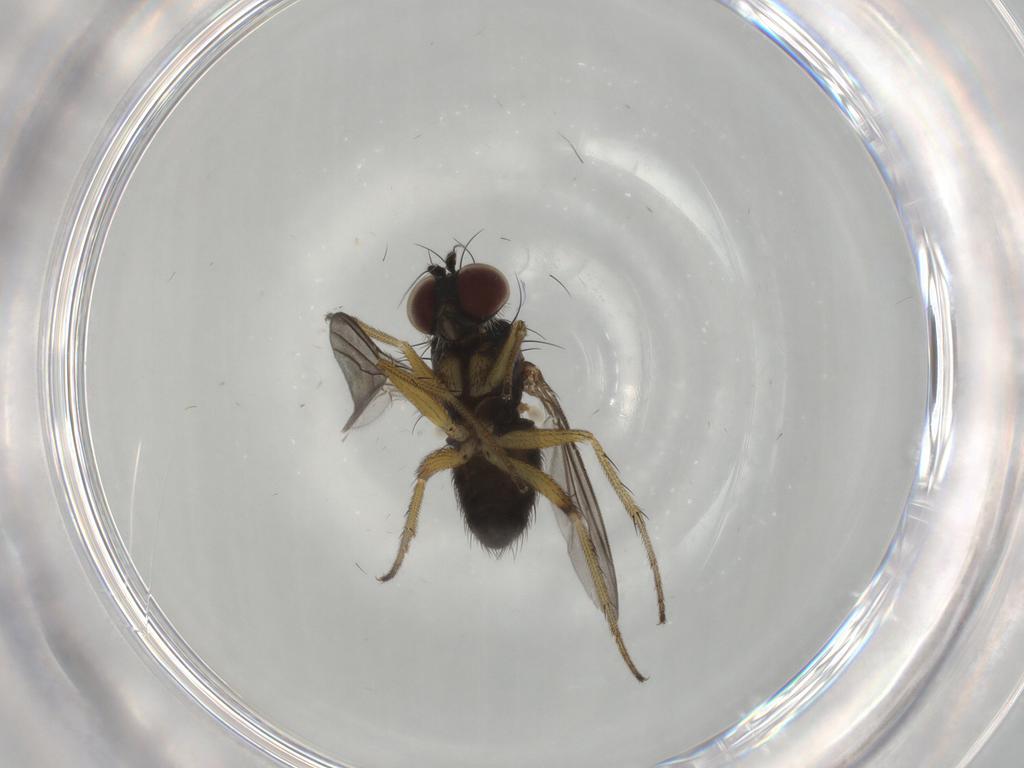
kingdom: Animalia
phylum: Arthropoda
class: Insecta
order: Diptera
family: Dolichopodidae
